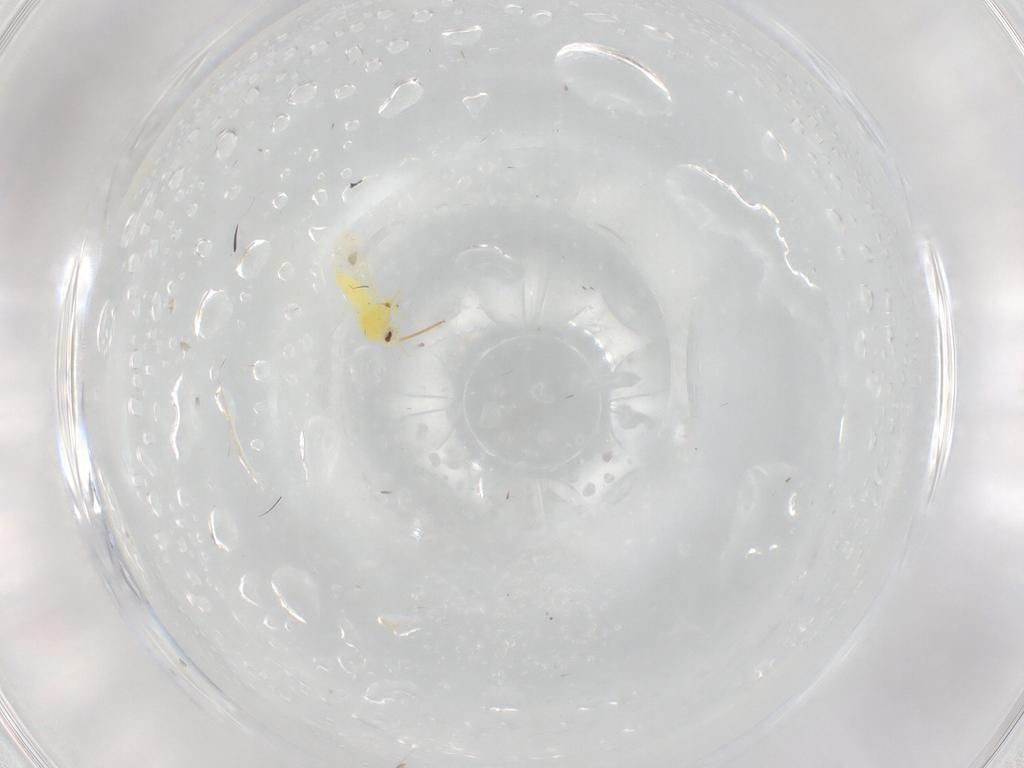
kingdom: Animalia
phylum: Arthropoda
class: Insecta
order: Hemiptera
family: Aleyrodidae
